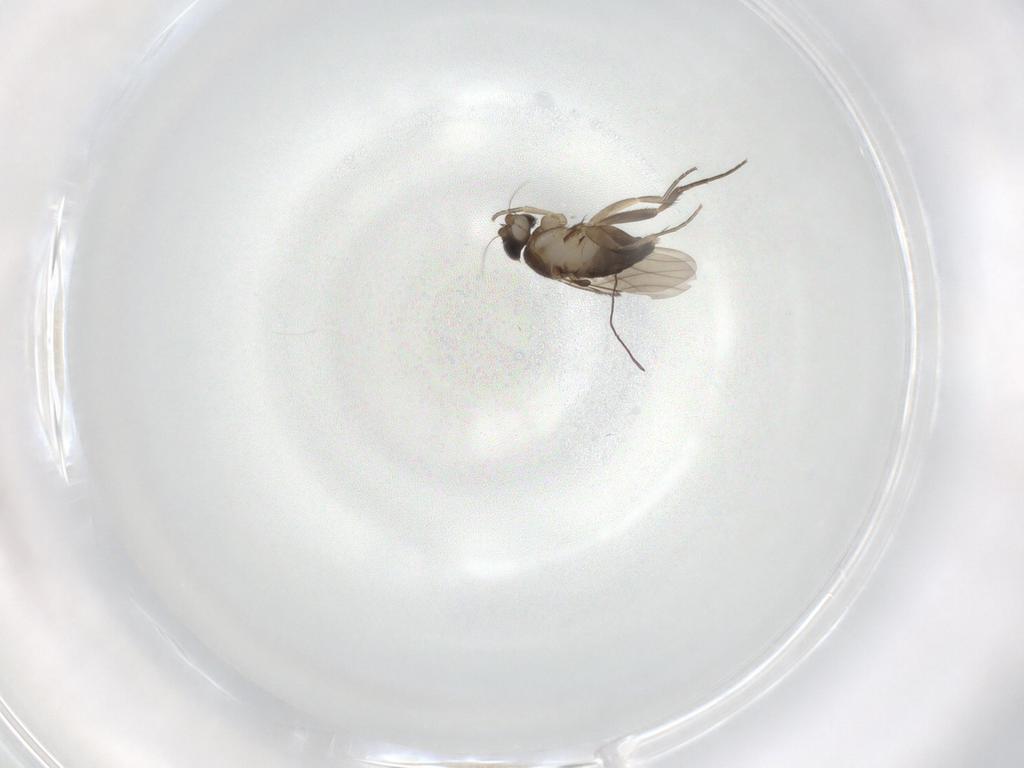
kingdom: Animalia
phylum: Arthropoda
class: Insecta
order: Diptera
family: Phoridae
